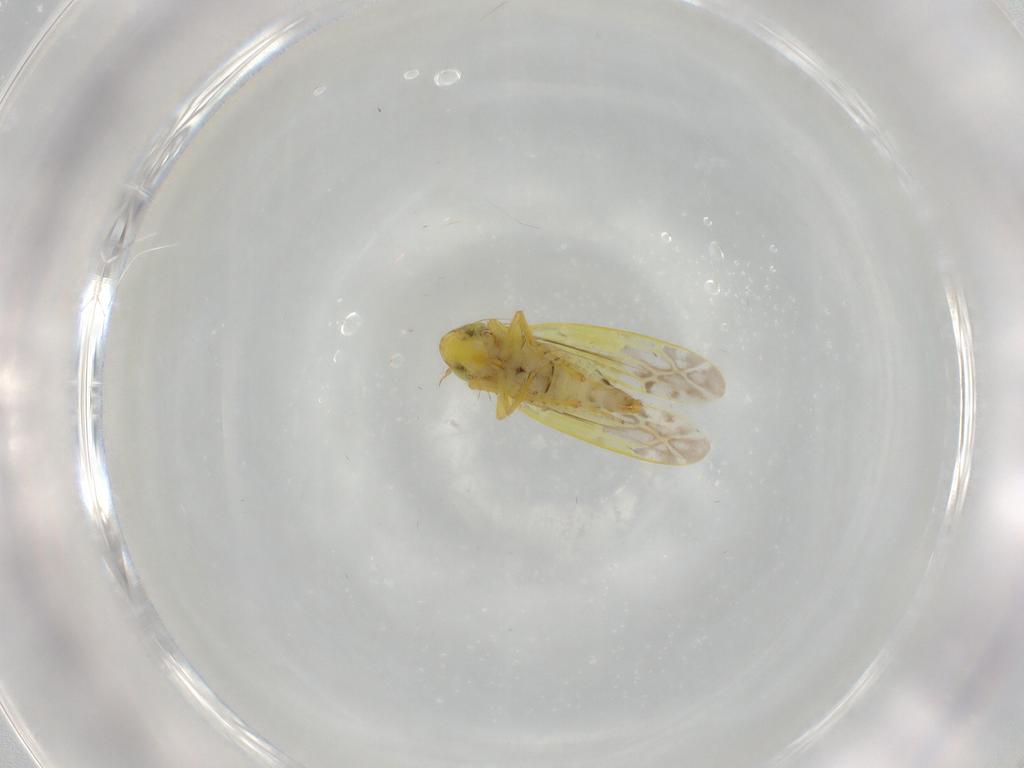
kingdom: Animalia
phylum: Arthropoda
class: Insecta
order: Hemiptera
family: Cicadellidae
